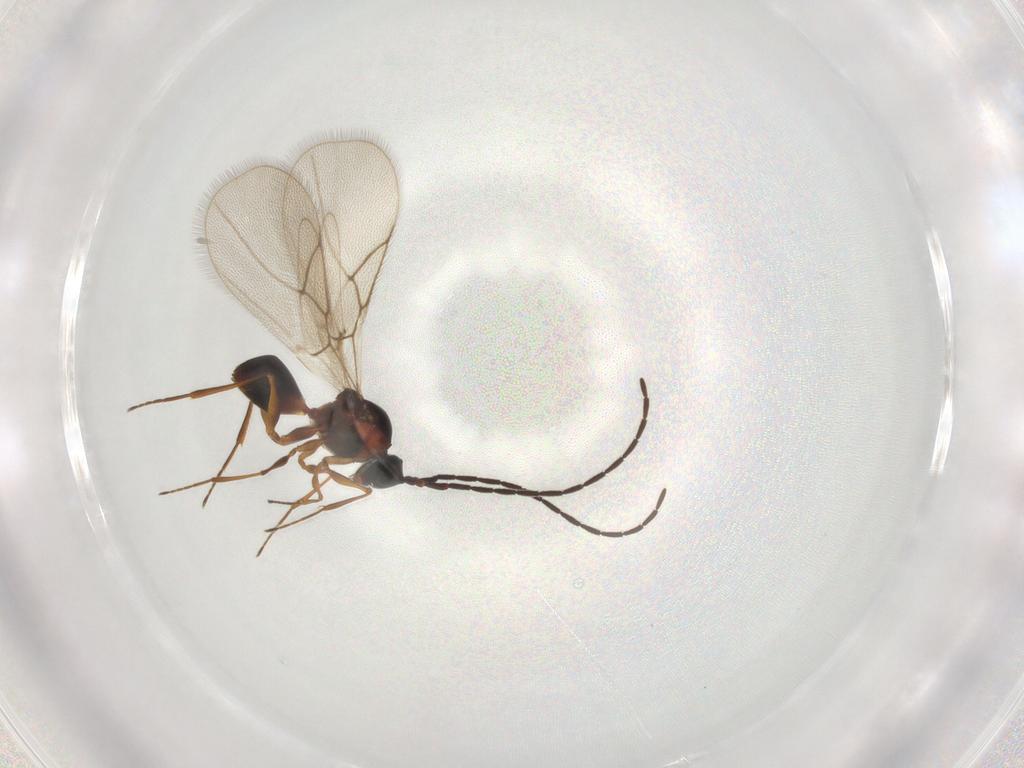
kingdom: Animalia
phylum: Arthropoda
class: Insecta
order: Hymenoptera
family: Figitidae
